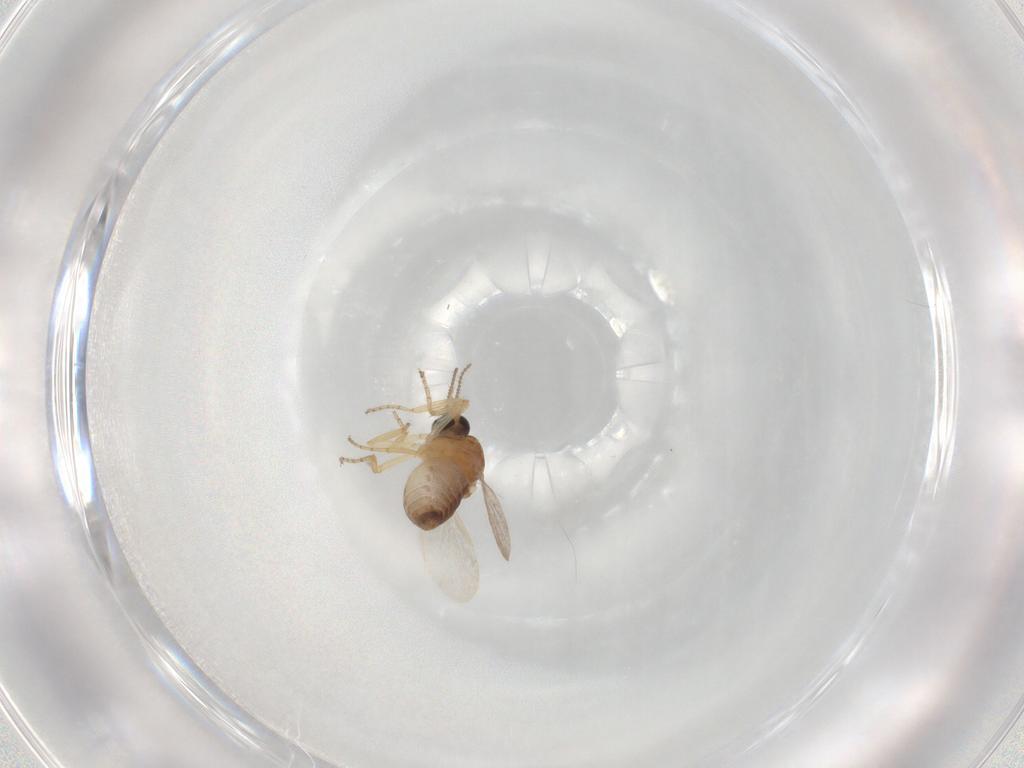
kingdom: Animalia
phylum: Arthropoda
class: Insecta
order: Diptera
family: Ceratopogonidae
